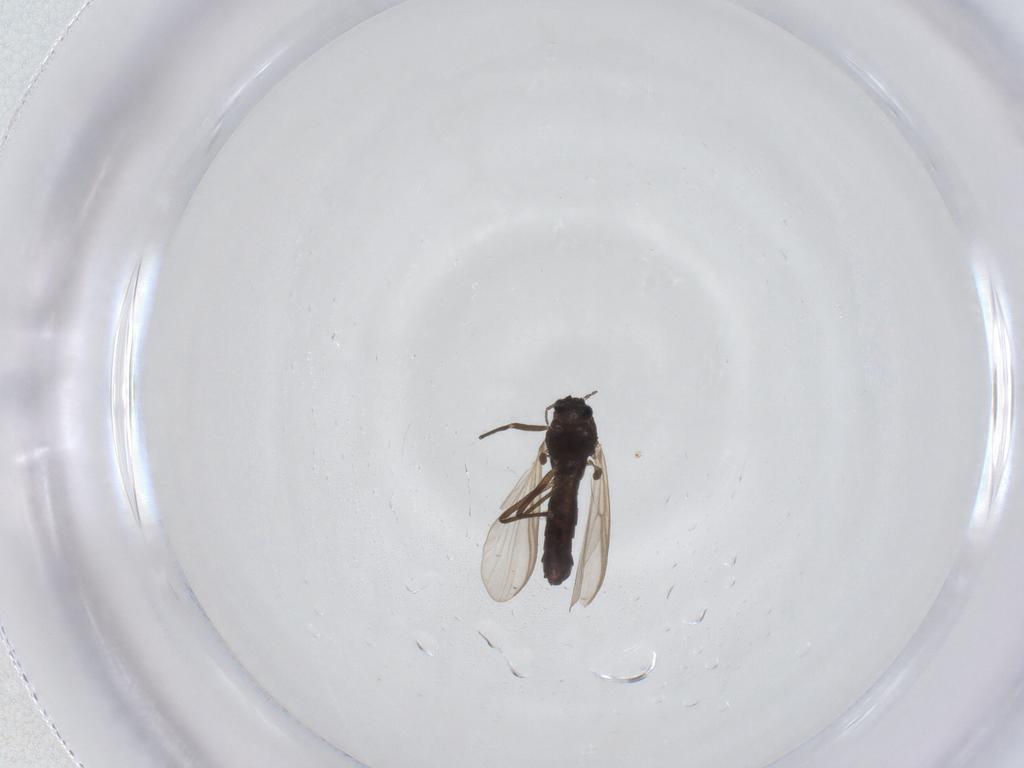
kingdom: Animalia
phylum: Arthropoda
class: Insecta
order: Diptera
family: Chironomidae
